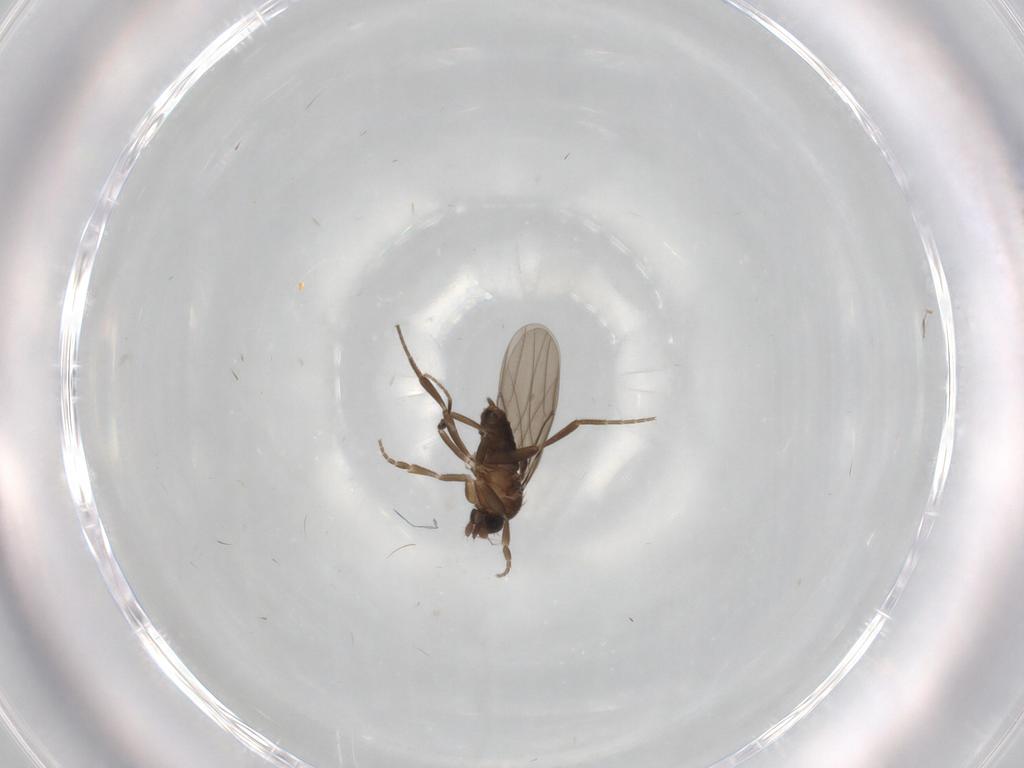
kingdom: Animalia
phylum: Arthropoda
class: Insecta
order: Diptera
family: Phoridae
